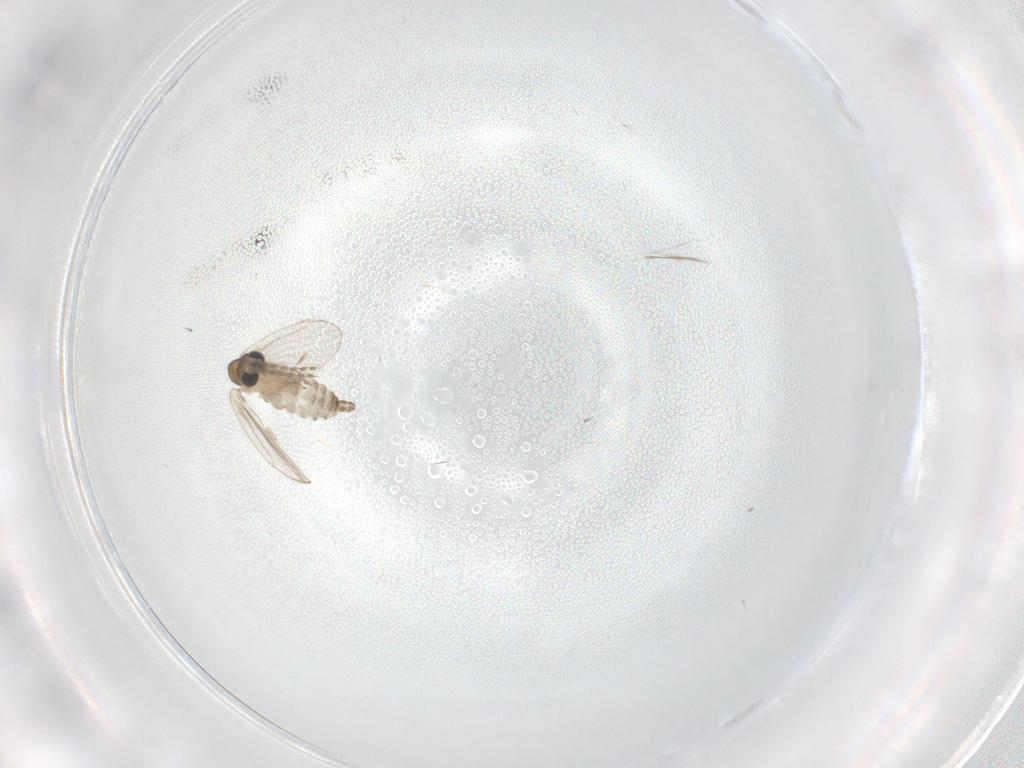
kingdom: Animalia
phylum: Arthropoda
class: Insecta
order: Diptera
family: Psychodidae
